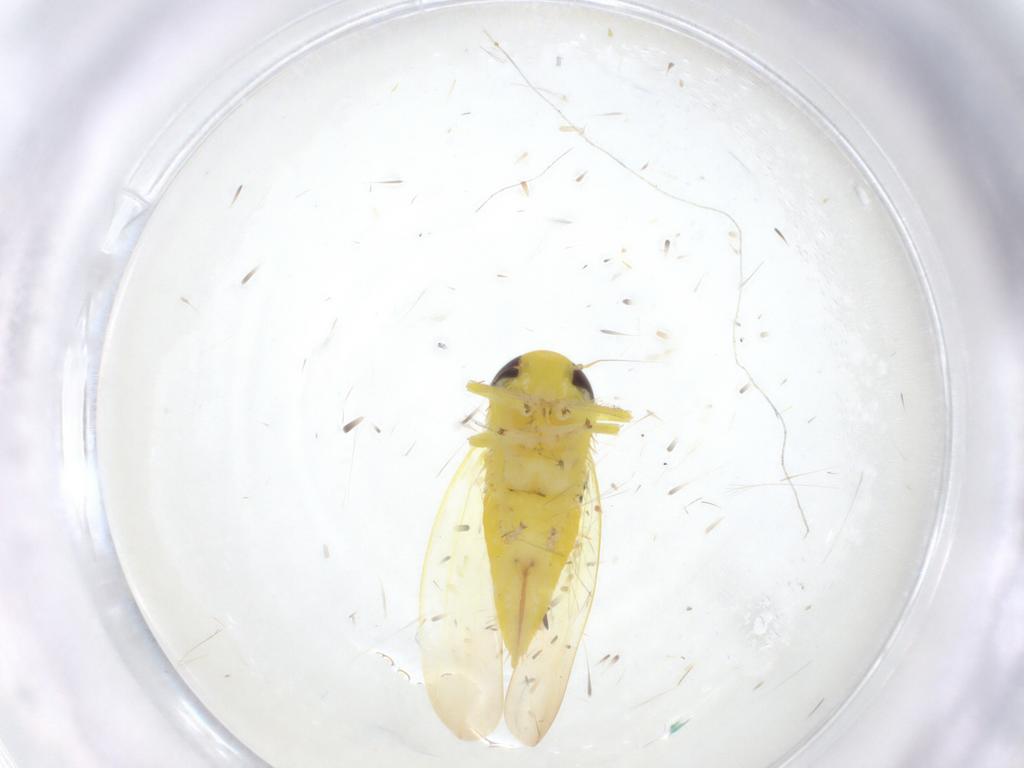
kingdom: Animalia
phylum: Arthropoda
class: Insecta
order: Hemiptera
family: Cicadellidae
